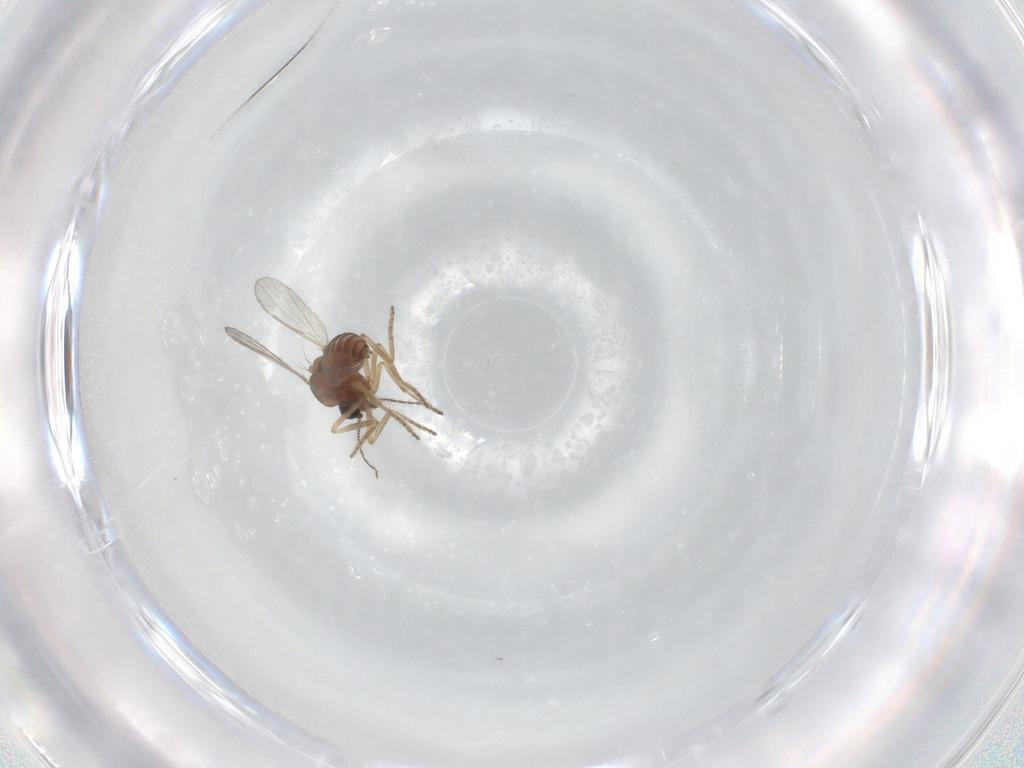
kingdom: Animalia
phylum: Arthropoda
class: Insecta
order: Diptera
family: Ceratopogonidae
